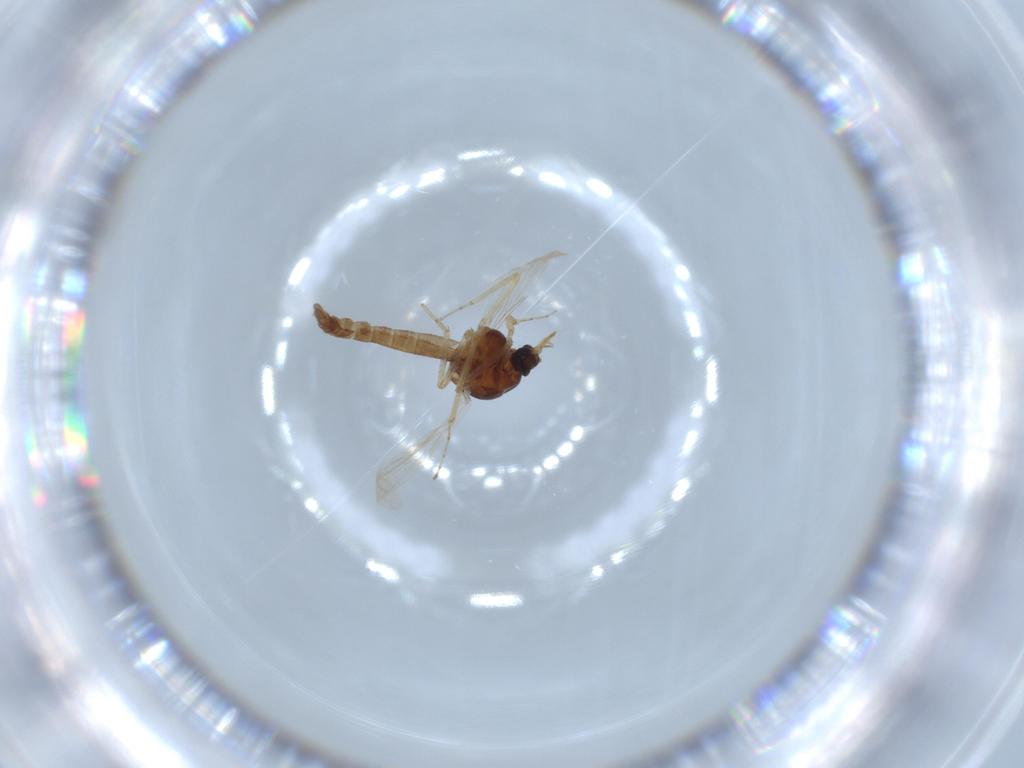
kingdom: Animalia
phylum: Arthropoda
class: Insecta
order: Diptera
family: Ceratopogonidae
